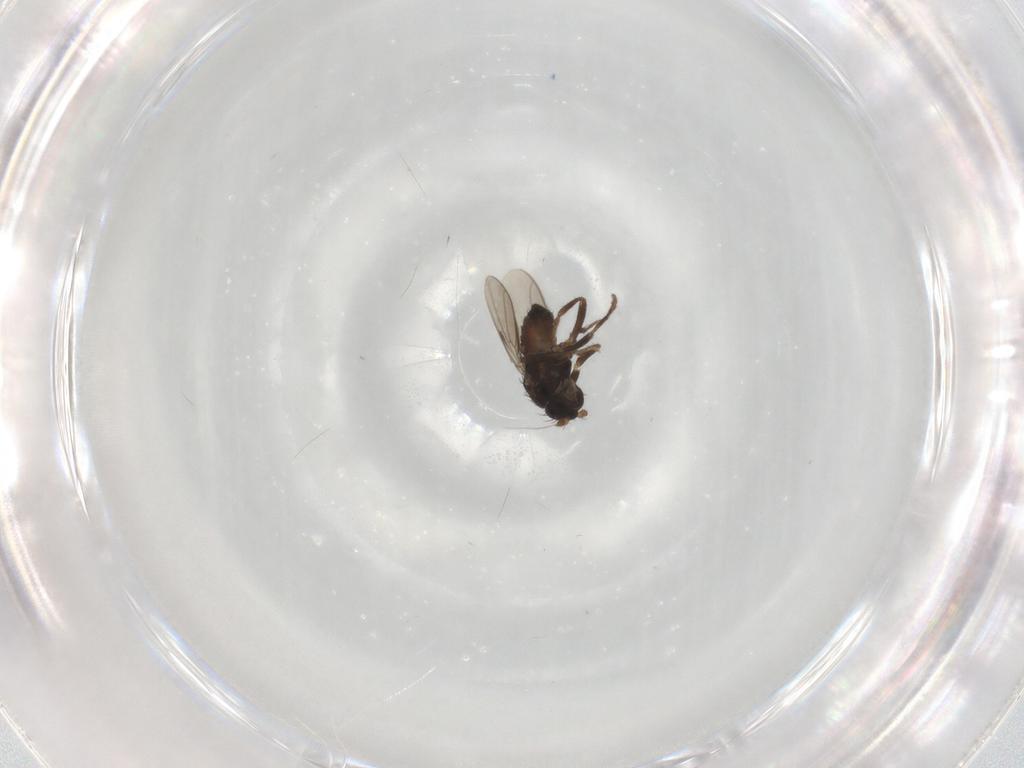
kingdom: Animalia
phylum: Arthropoda
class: Insecta
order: Diptera
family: Sphaeroceridae
